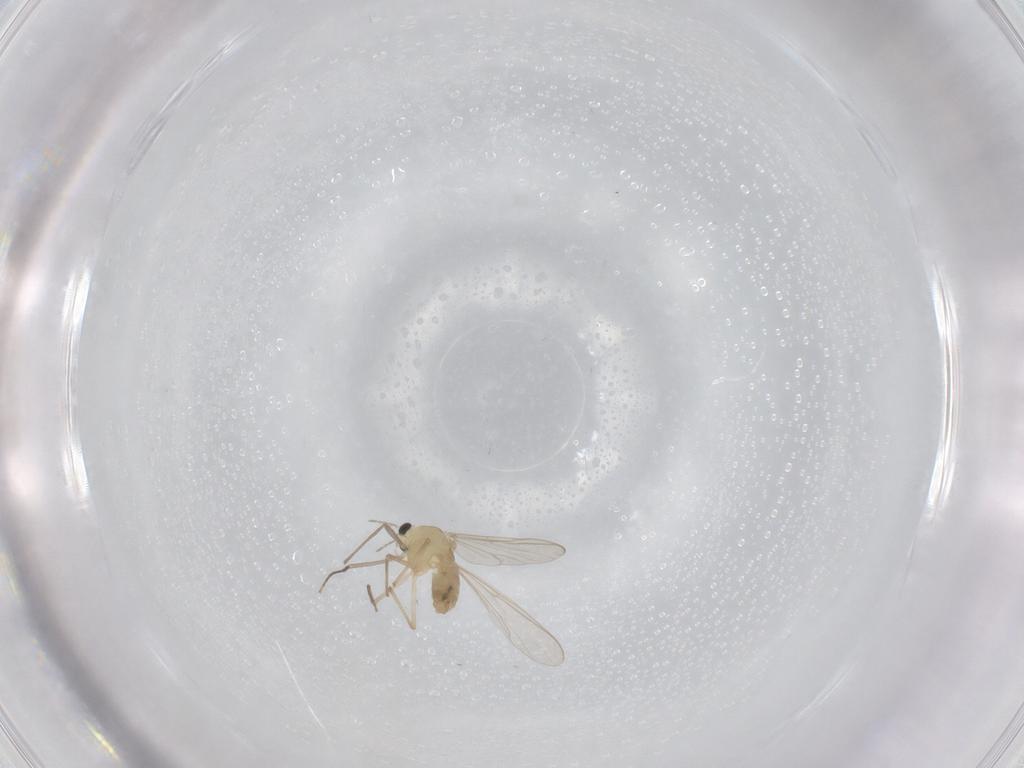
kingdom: Animalia
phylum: Arthropoda
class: Insecta
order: Diptera
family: Chironomidae
